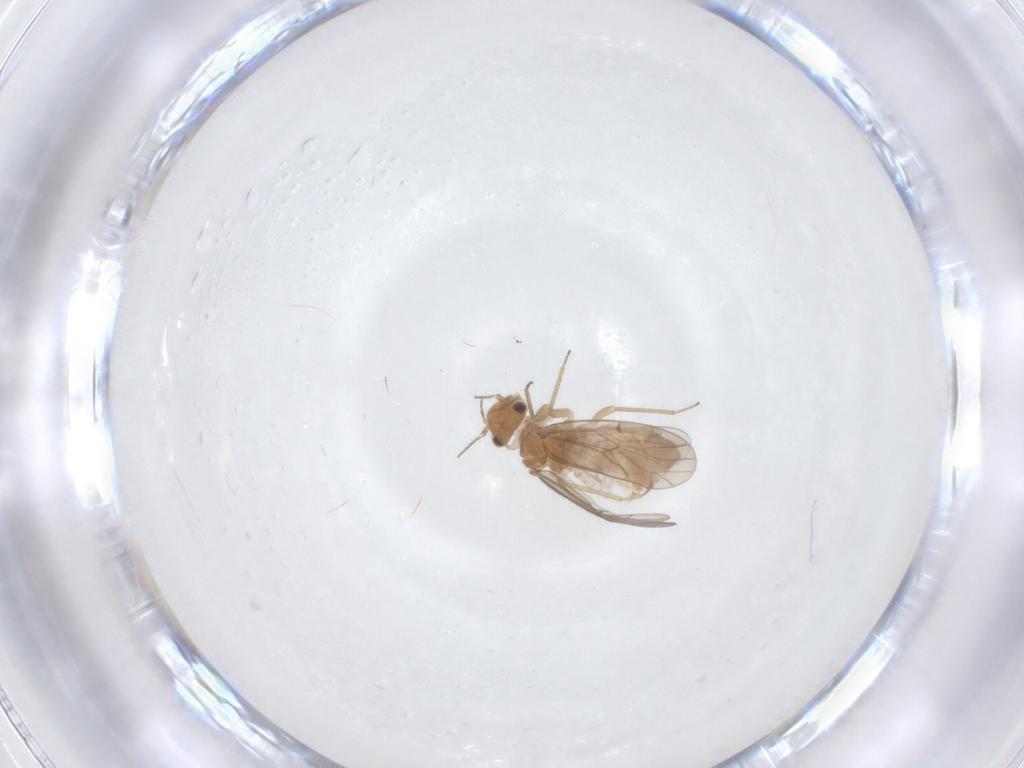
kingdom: Animalia
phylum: Arthropoda
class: Insecta
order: Psocodea
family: Ectopsocidae
